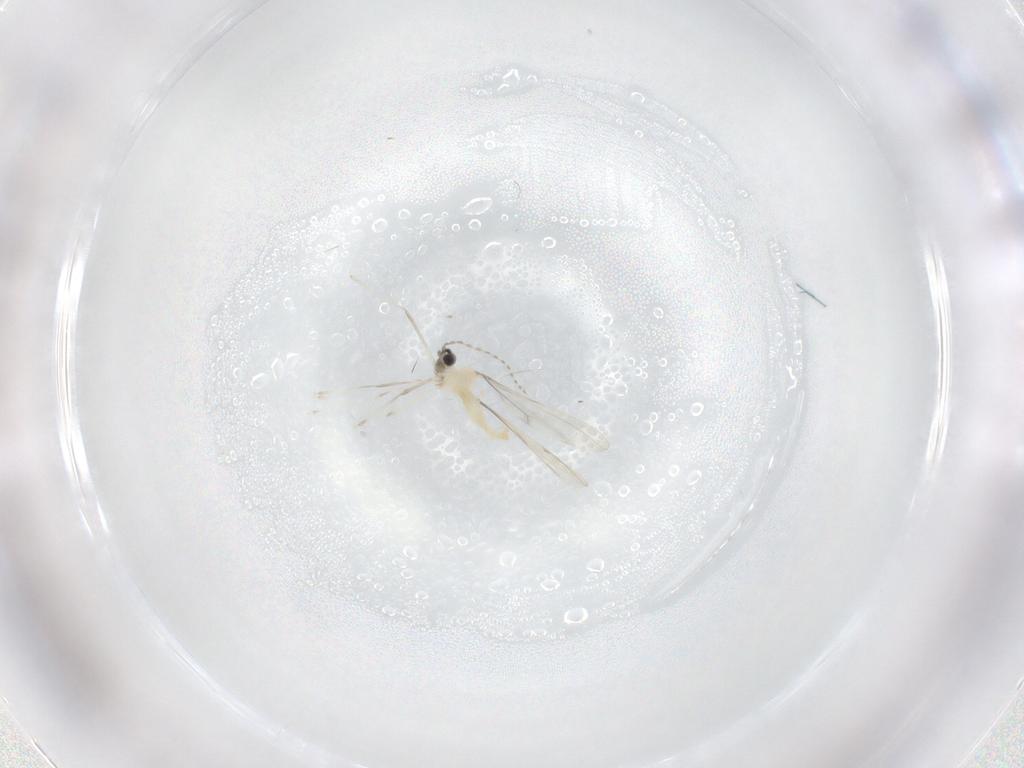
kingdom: Animalia
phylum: Arthropoda
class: Insecta
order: Diptera
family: Cecidomyiidae
